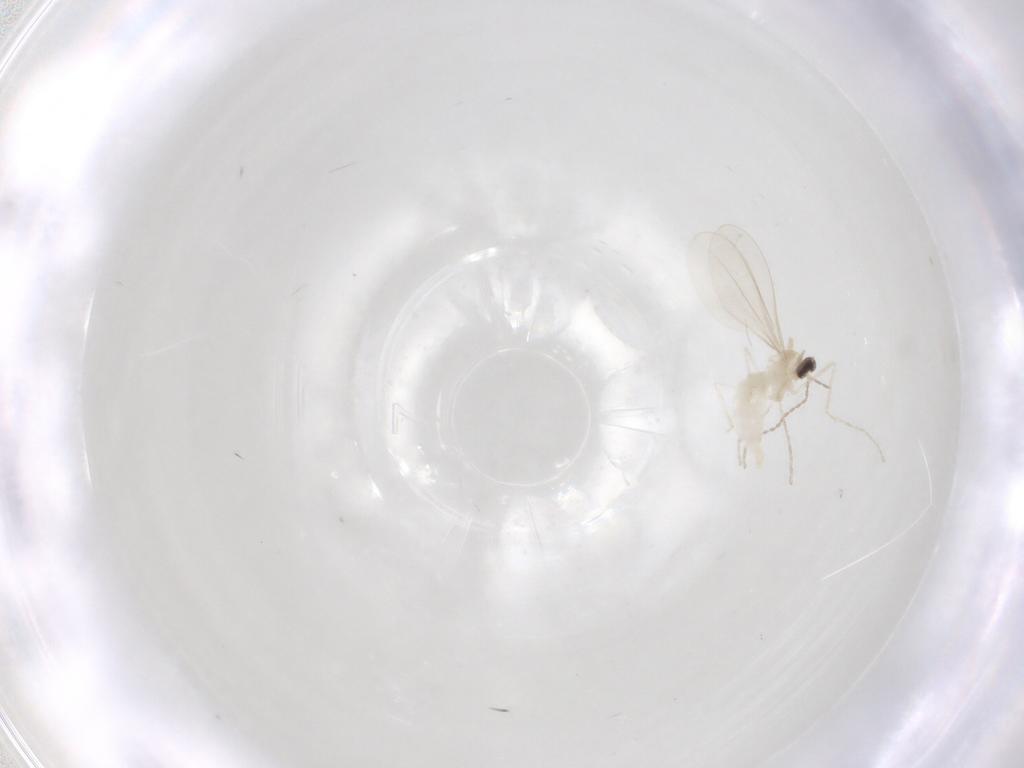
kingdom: Animalia
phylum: Arthropoda
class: Insecta
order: Diptera
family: Cecidomyiidae
